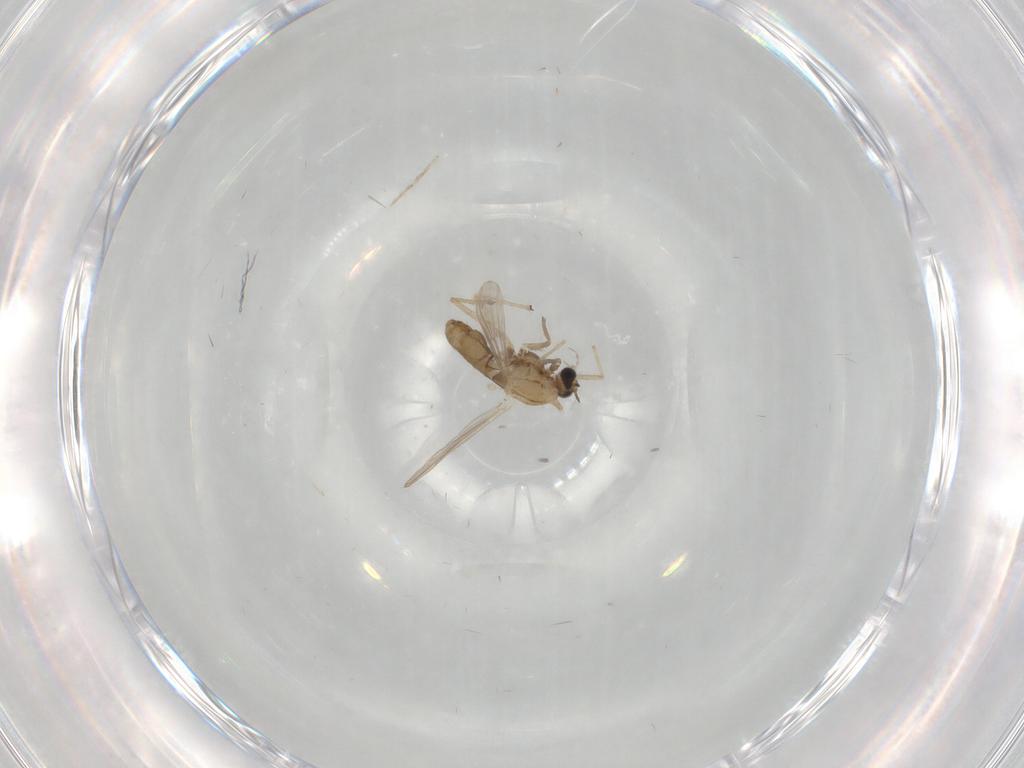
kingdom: Animalia
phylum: Arthropoda
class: Insecta
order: Diptera
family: Chironomidae
